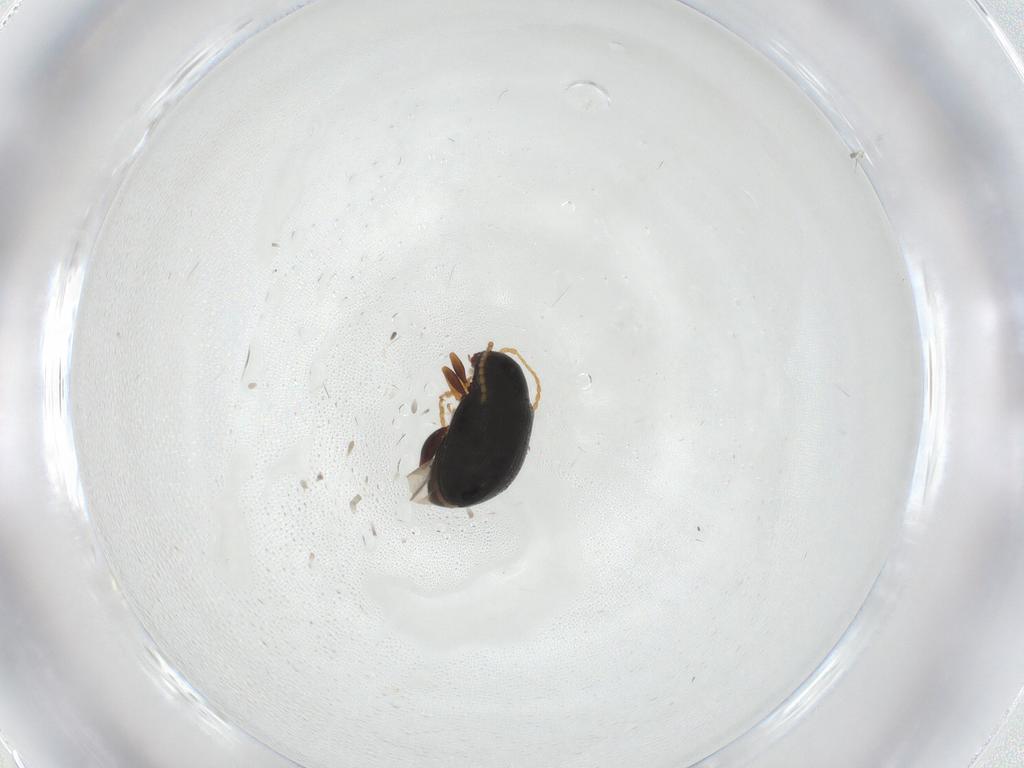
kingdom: Animalia
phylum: Arthropoda
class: Insecta
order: Coleoptera
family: Chrysomelidae
